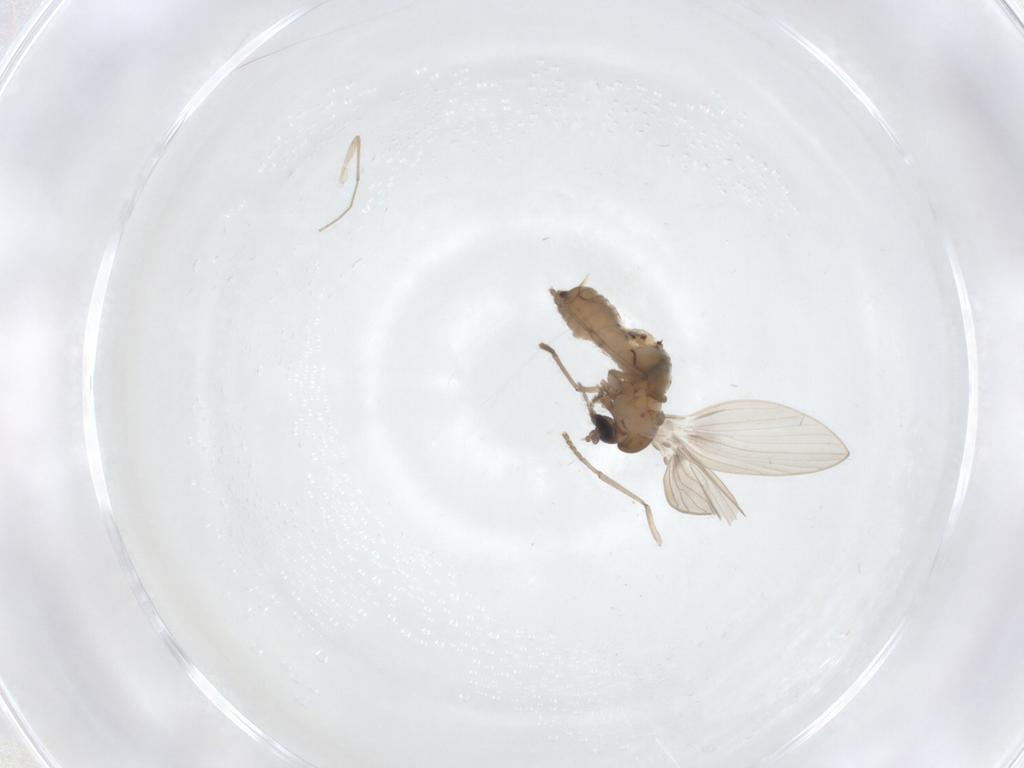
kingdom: Animalia
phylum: Arthropoda
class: Insecta
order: Diptera
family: Psychodidae
